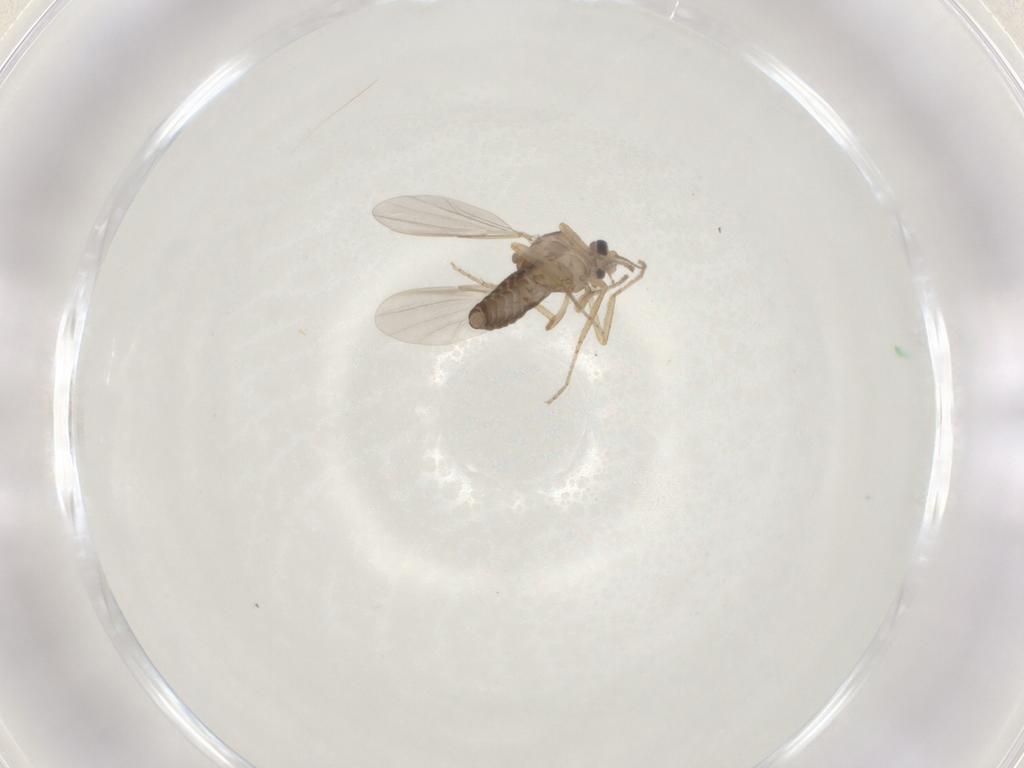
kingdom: Animalia
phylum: Arthropoda
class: Insecta
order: Diptera
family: Ceratopogonidae
